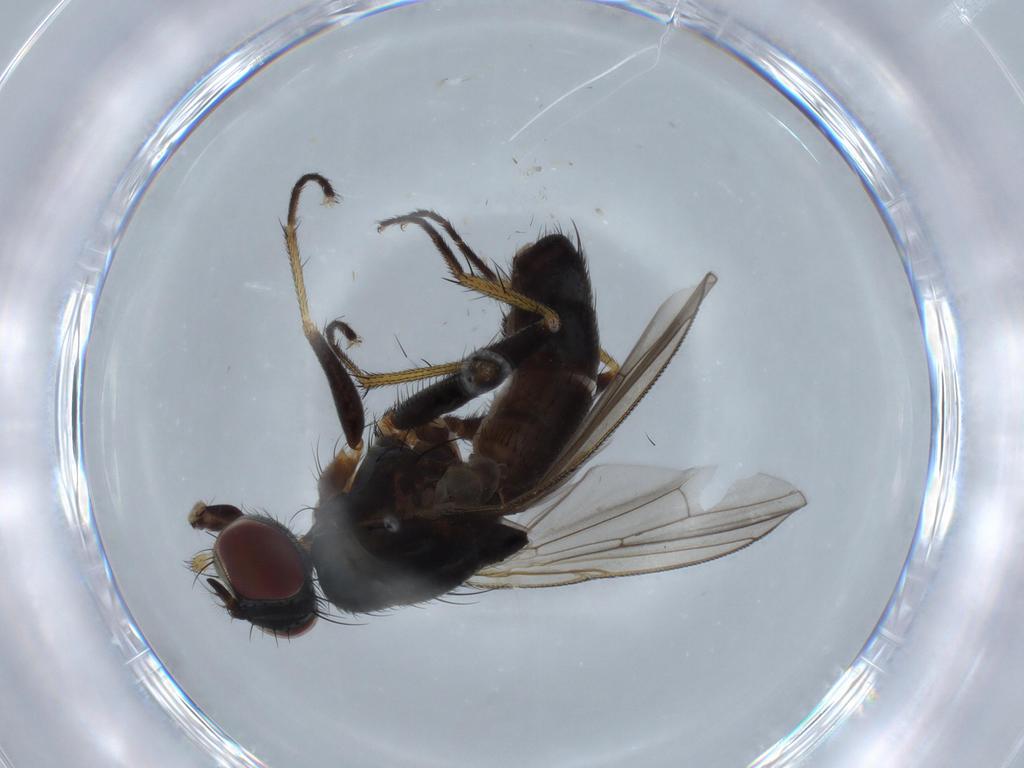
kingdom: Animalia
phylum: Arthropoda
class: Insecta
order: Diptera
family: Muscidae
